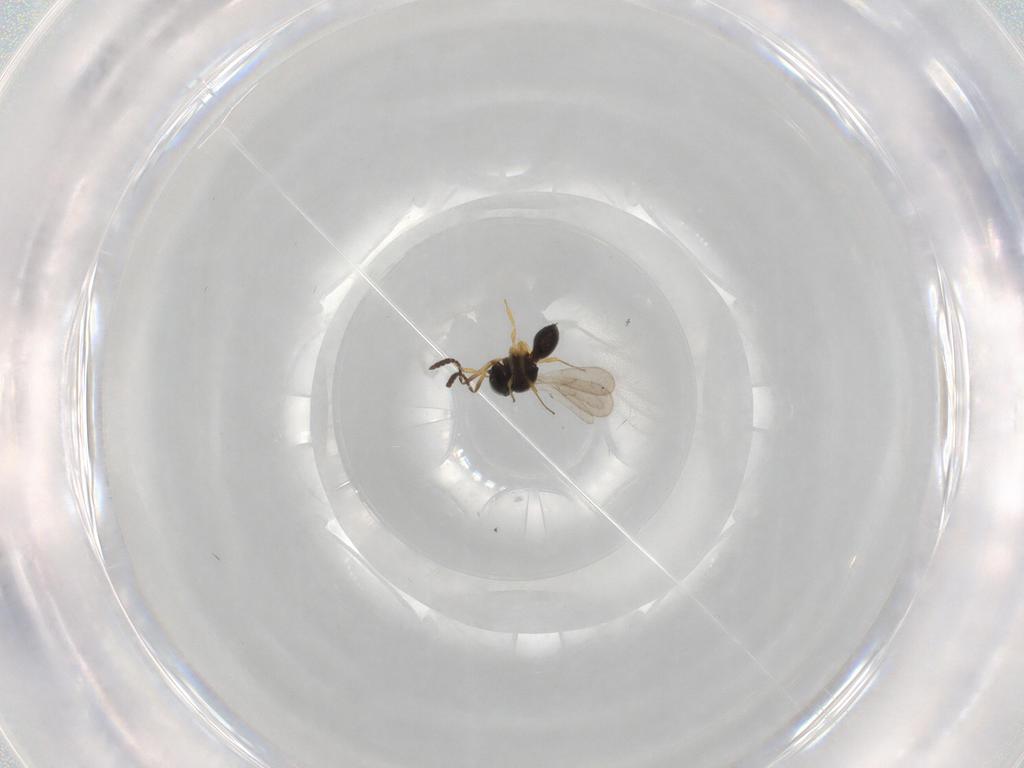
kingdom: Animalia
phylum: Arthropoda
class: Insecta
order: Hymenoptera
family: Scelionidae
